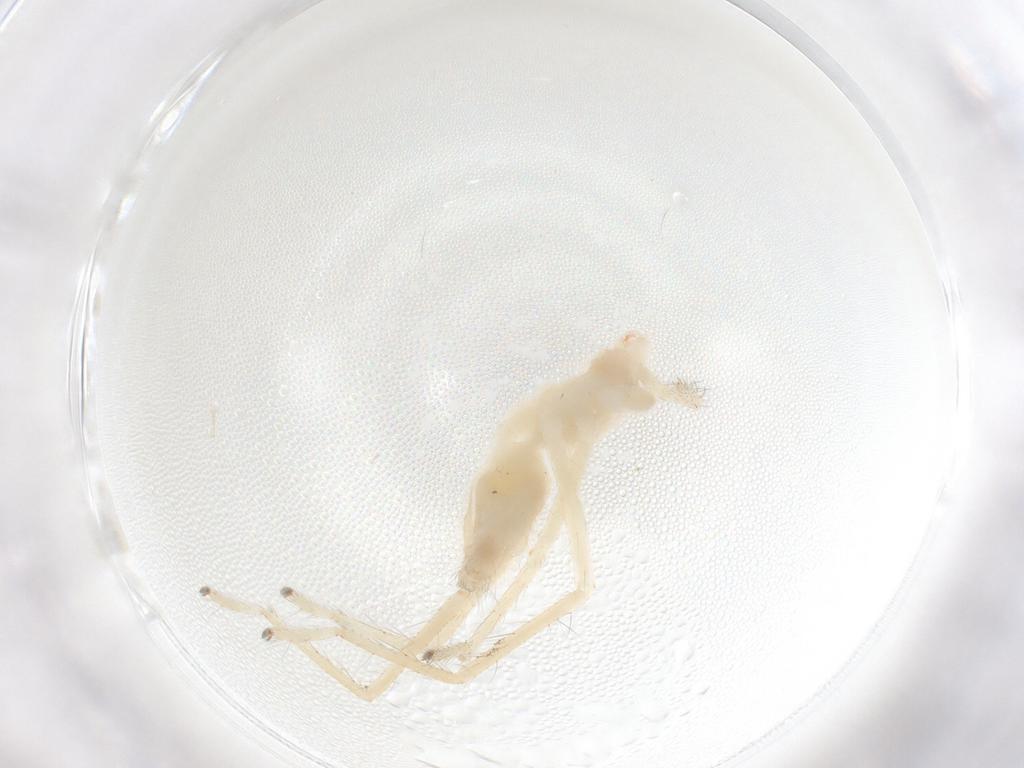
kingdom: Animalia
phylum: Arthropoda
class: Arachnida
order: Araneae
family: Sparassidae
